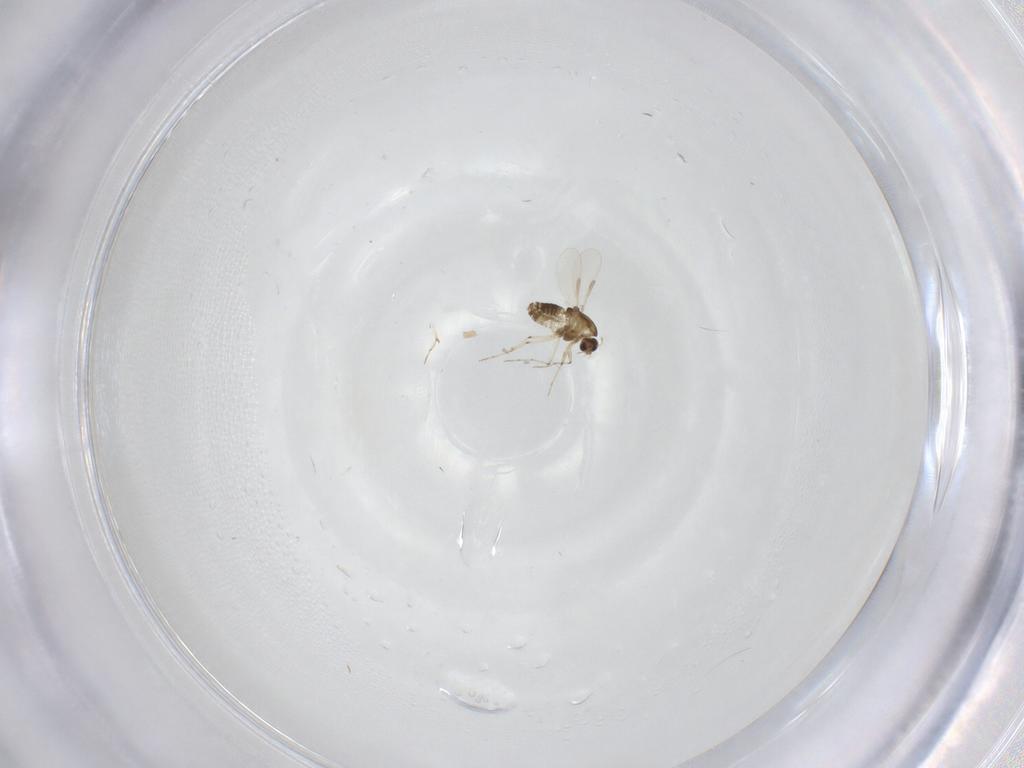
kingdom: Animalia
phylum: Arthropoda
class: Insecta
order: Diptera
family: Chironomidae
